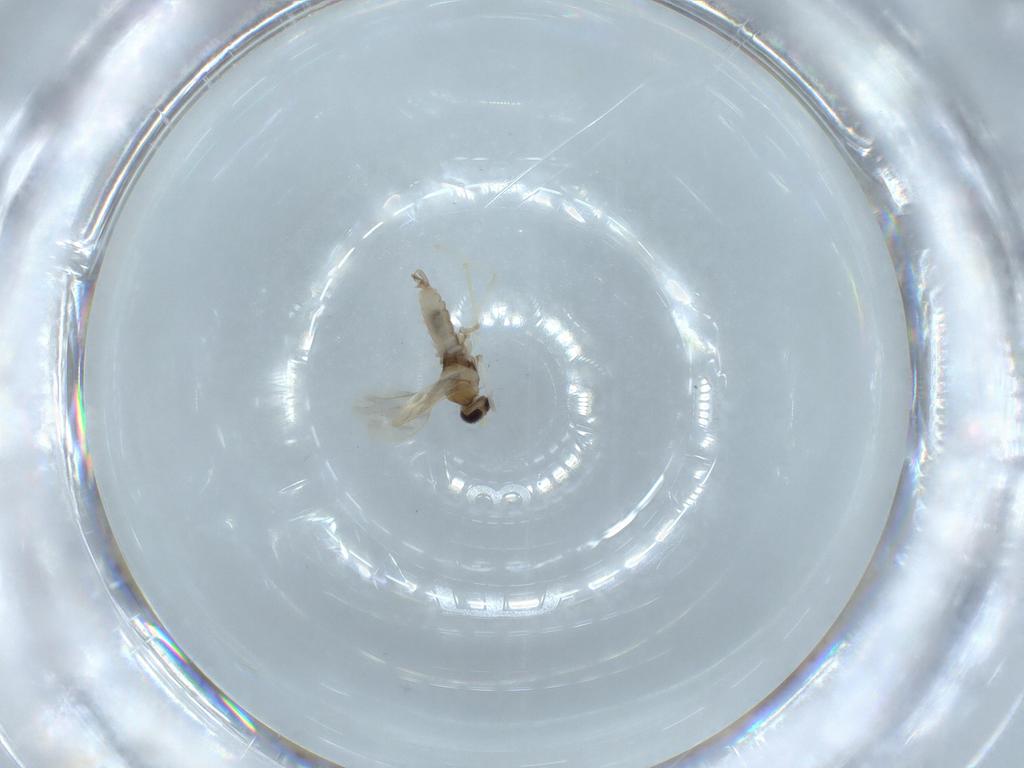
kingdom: Animalia
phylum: Arthropoda
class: Insecta
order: Diptera
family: Cecidomyiidae
